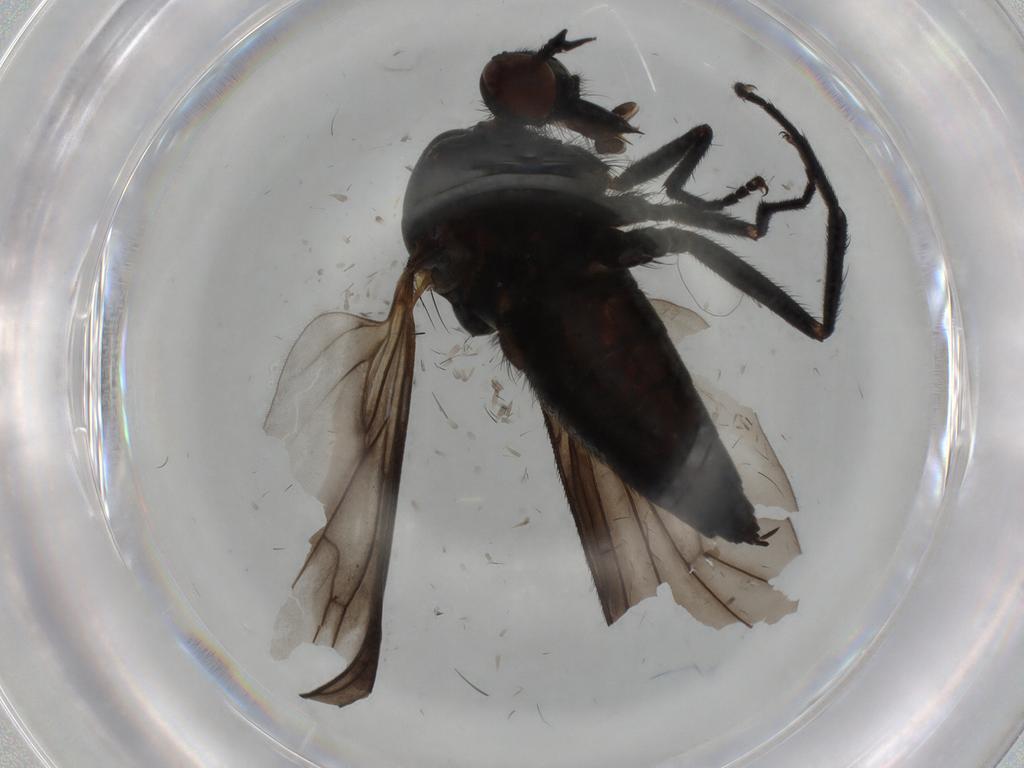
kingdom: Animalia
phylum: Arthropoda
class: Insecta
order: Diptera
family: Empididae
